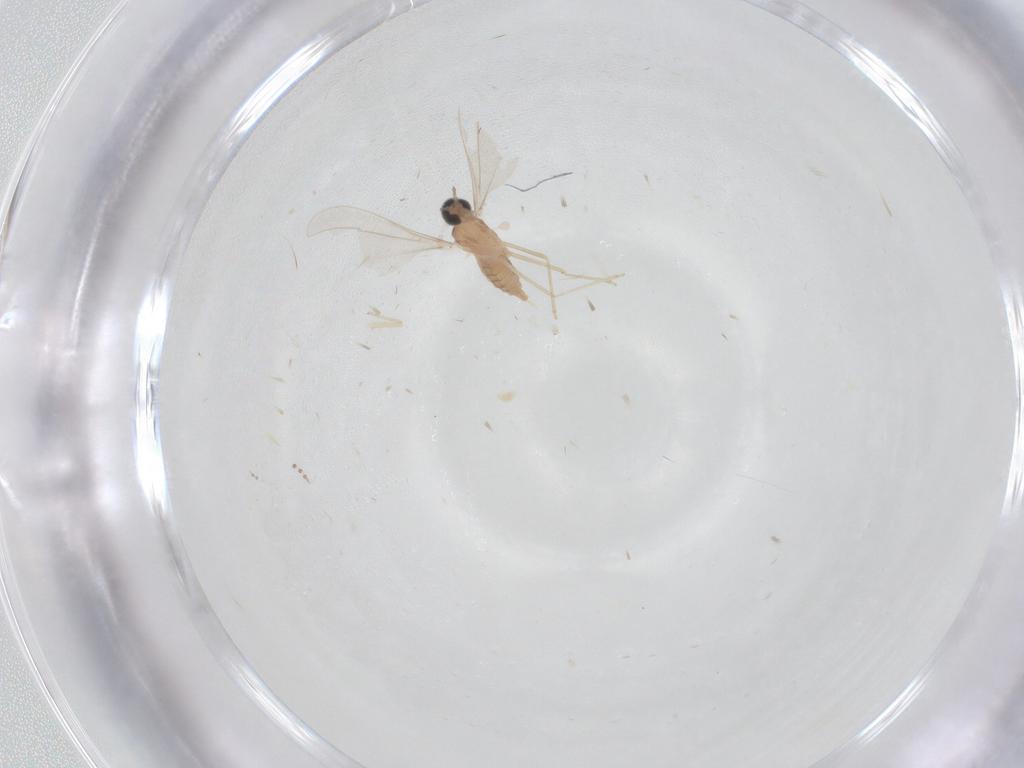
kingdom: Animalia
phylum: Arthropoda
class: Insecta
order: Diptera
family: Chironomidae
